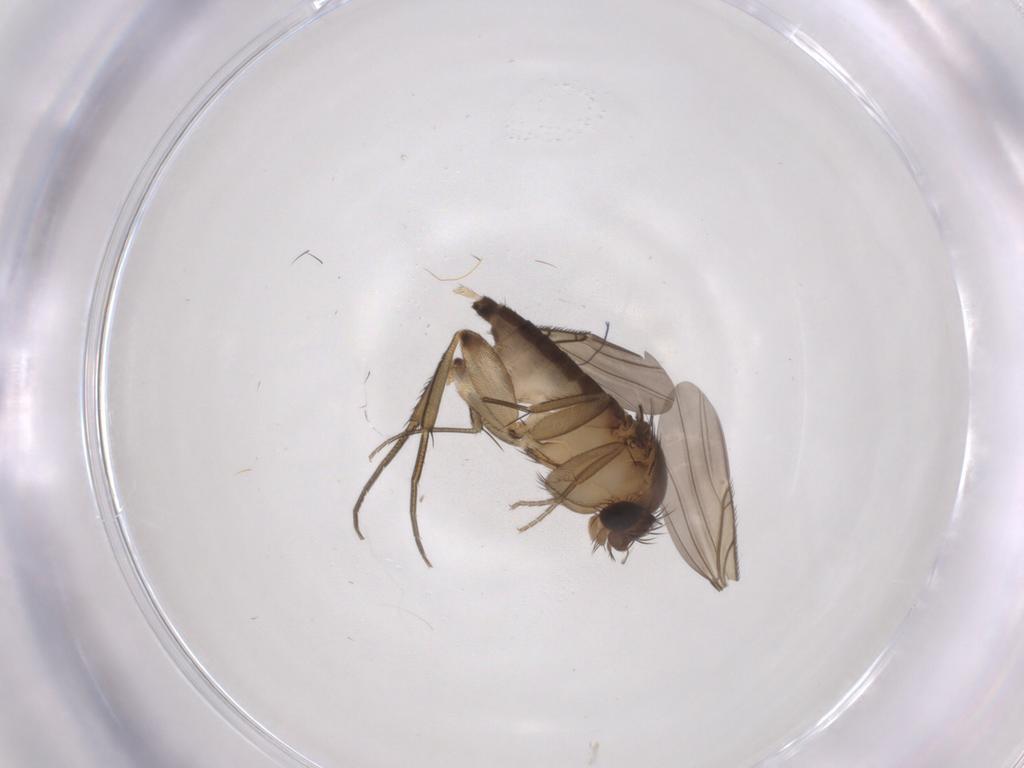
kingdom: Animalia
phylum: Arthropoda
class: Insecta
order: Diptera
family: Psychodidae
